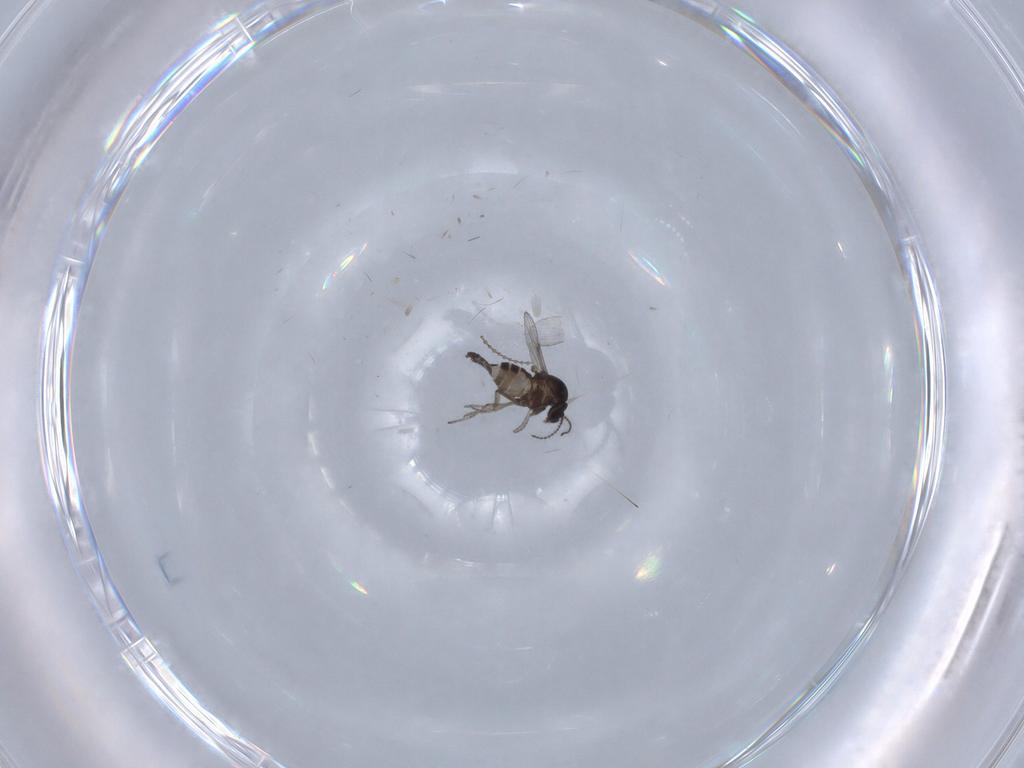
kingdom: Animalia
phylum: Arthropoda
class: Insecta
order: Diptera
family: Ceratopogonidae
